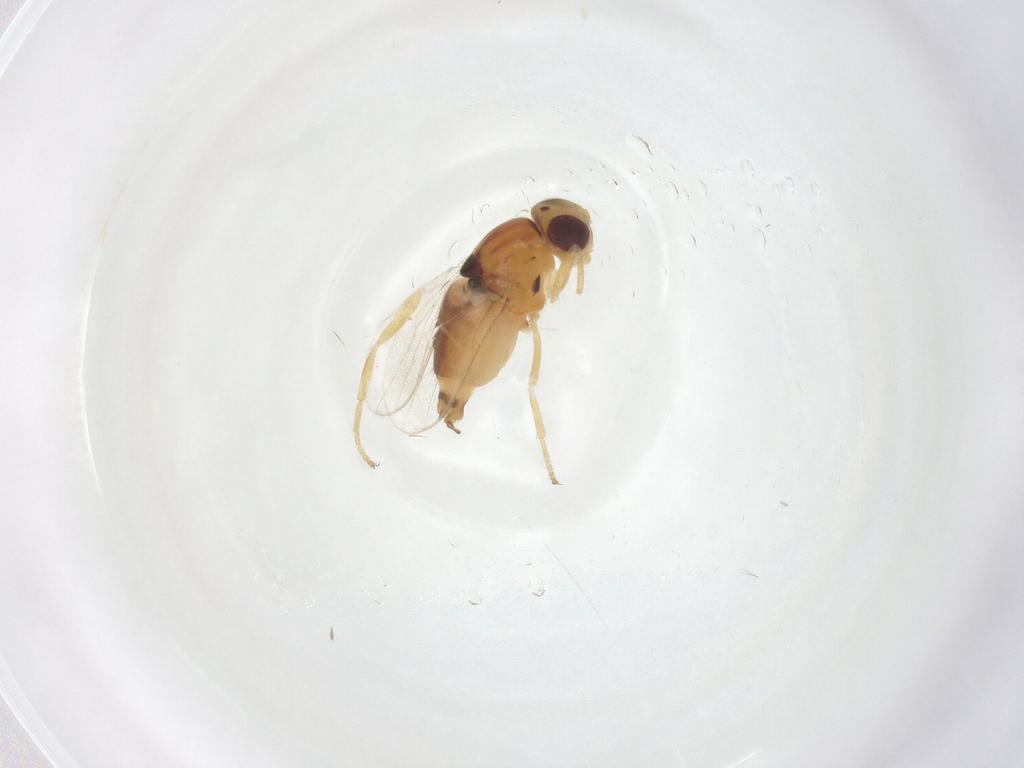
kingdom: Animalia
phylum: Arthropoda
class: Insecta
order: Diptera
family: Chloropidae
